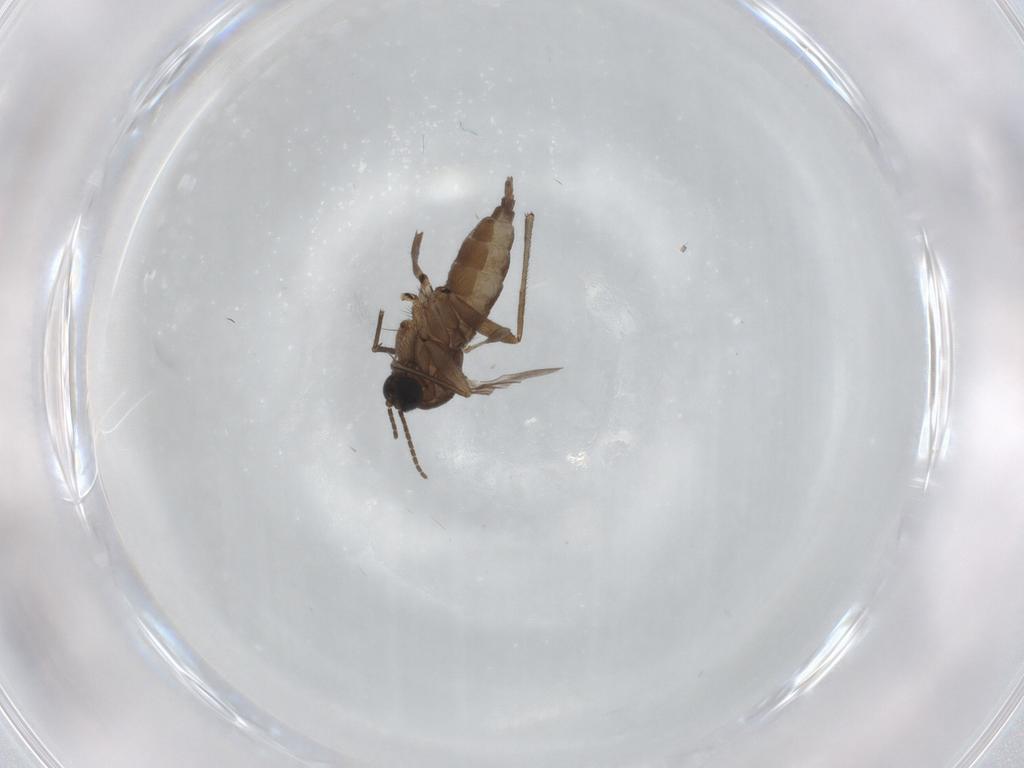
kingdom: Animalia
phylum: Arthropoda
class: Insecta
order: Diptera
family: Sciaridae
